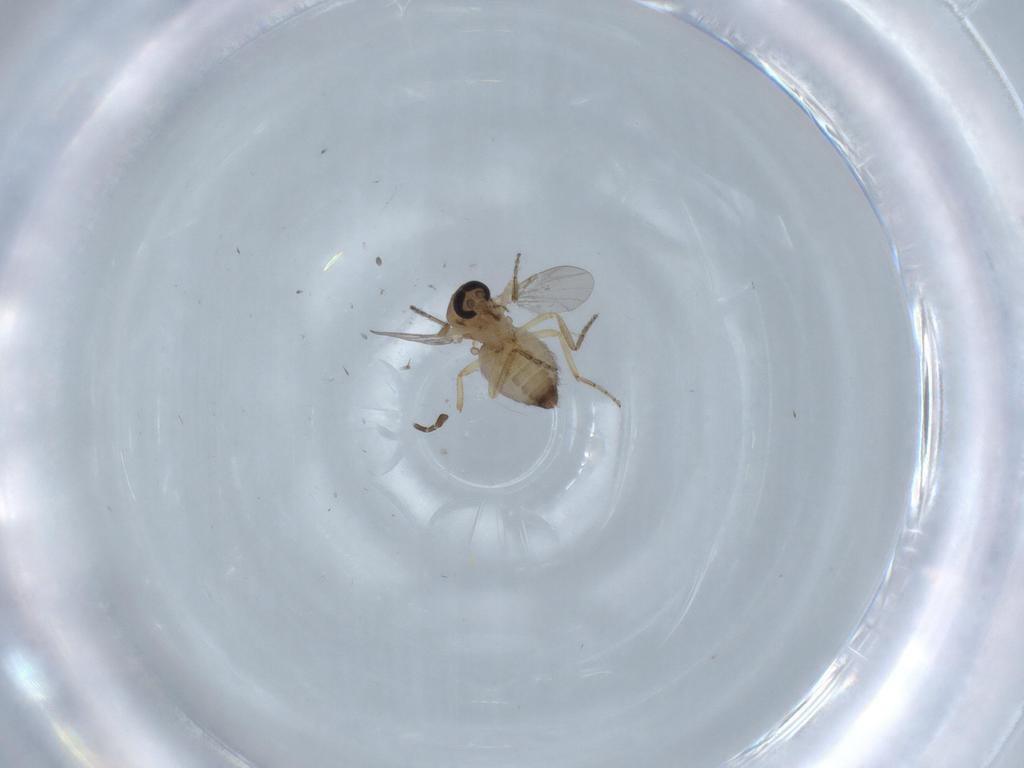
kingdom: Animalia
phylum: Arthropoda
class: Insecta
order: Diptera
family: Ceratopogonidae
